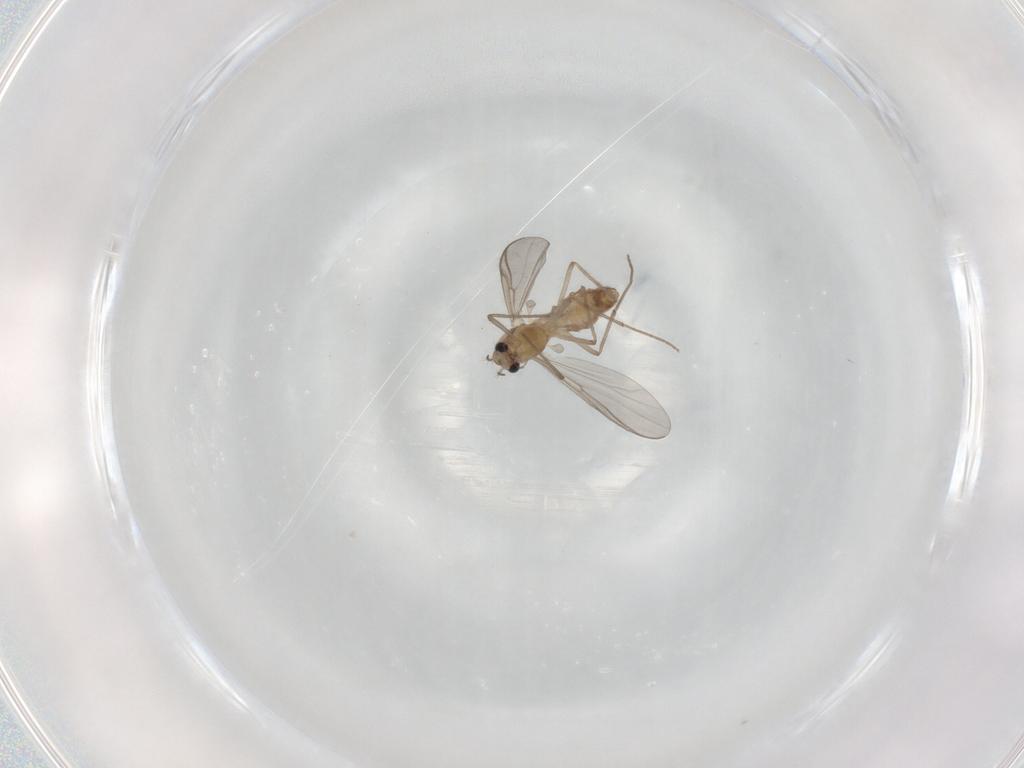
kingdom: Animalia
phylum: Arthropoda
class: Insecta
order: Diptera
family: Chironomidae
